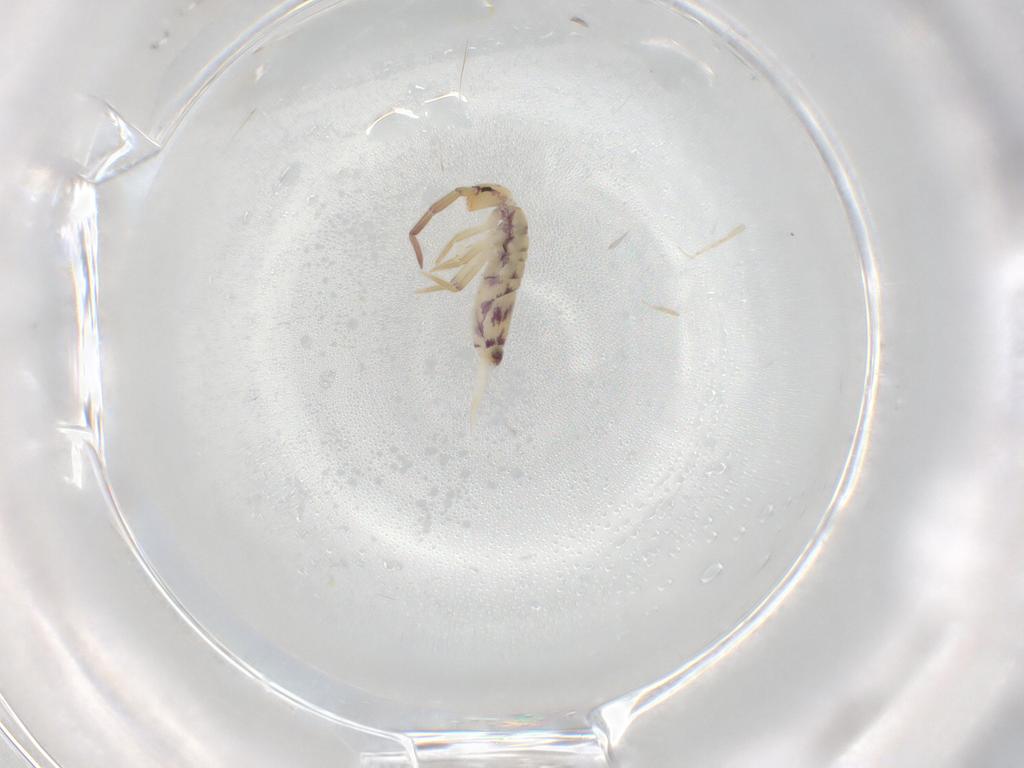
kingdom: Animalia
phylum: Arthropoda
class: Collembola
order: Entomobryomorpha
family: Entomobryidae
